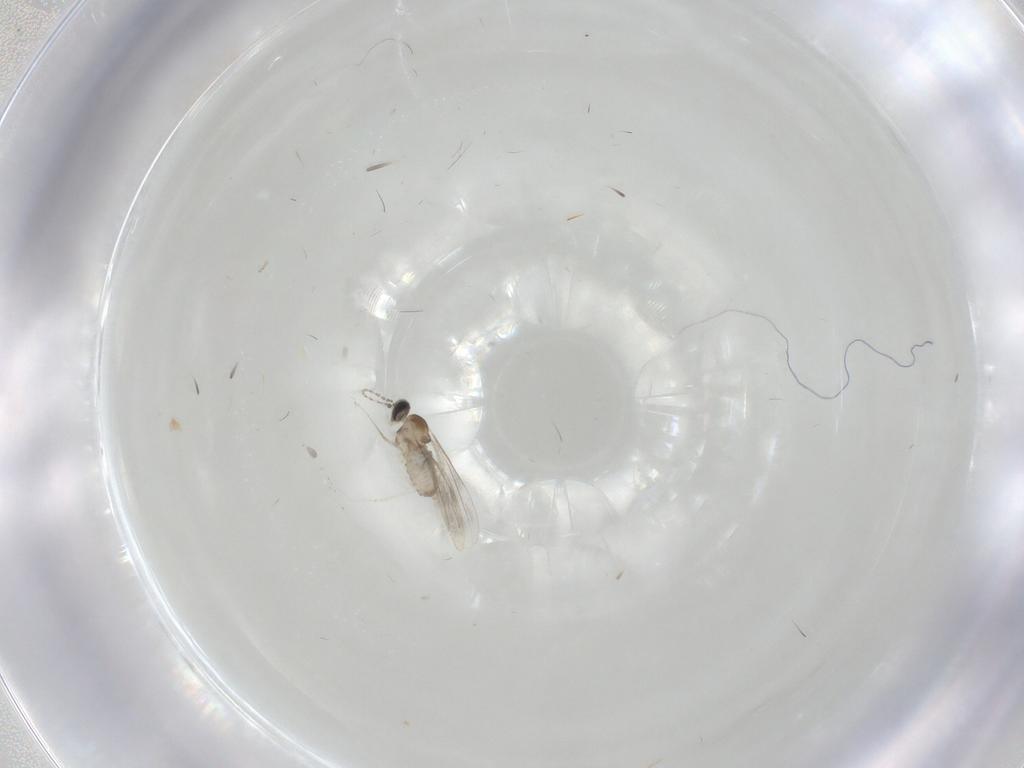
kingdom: Animalia
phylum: Arthropoda
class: Insecta
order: Diptera
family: Cecidomyiidae
